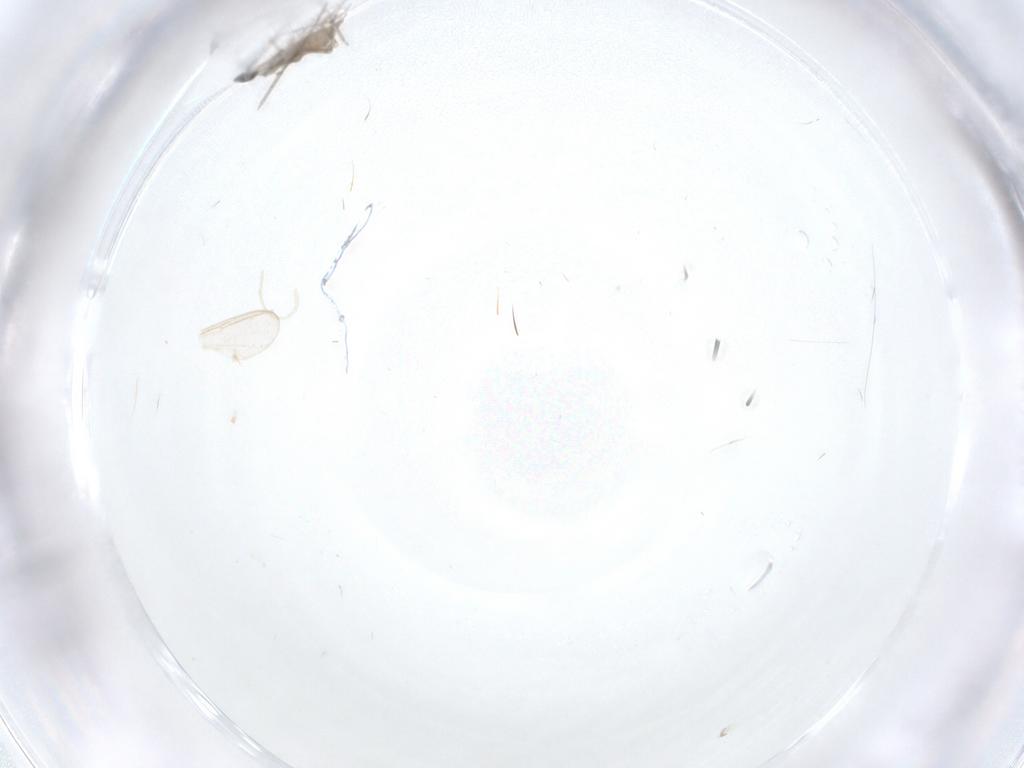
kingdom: Animalia
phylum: Arthropoda
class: Insecta
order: Diptera
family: Cecidomyiidae
